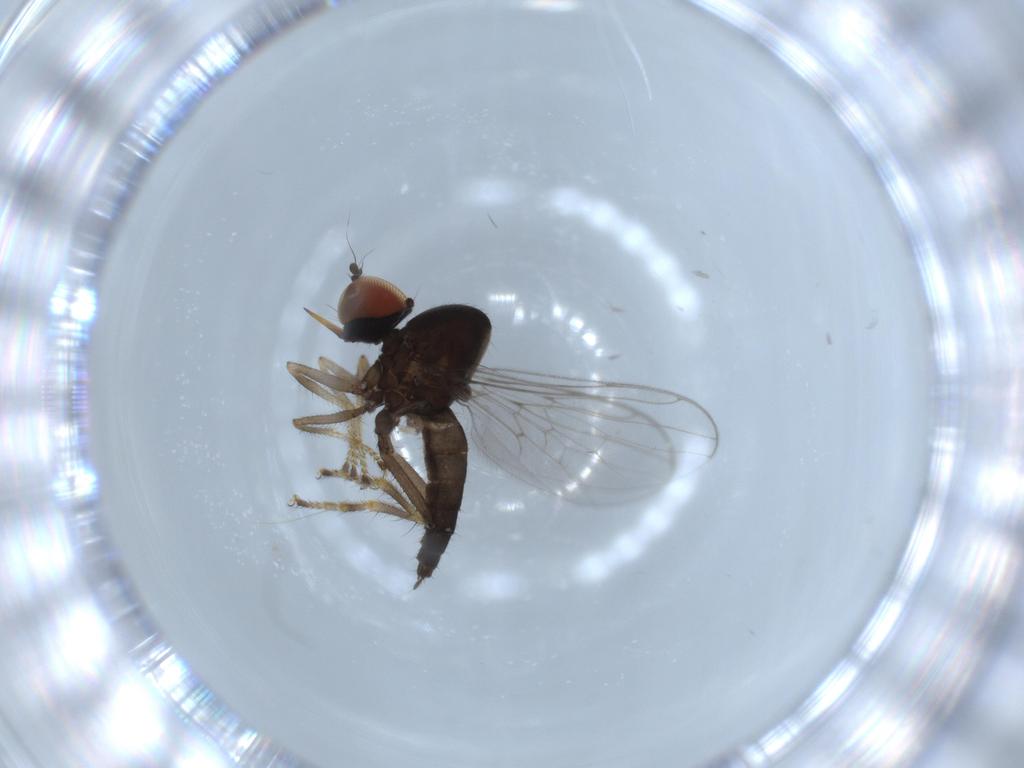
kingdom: Animalia
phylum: Arthropoda
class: Insecta
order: Diptera
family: Hybotidae
